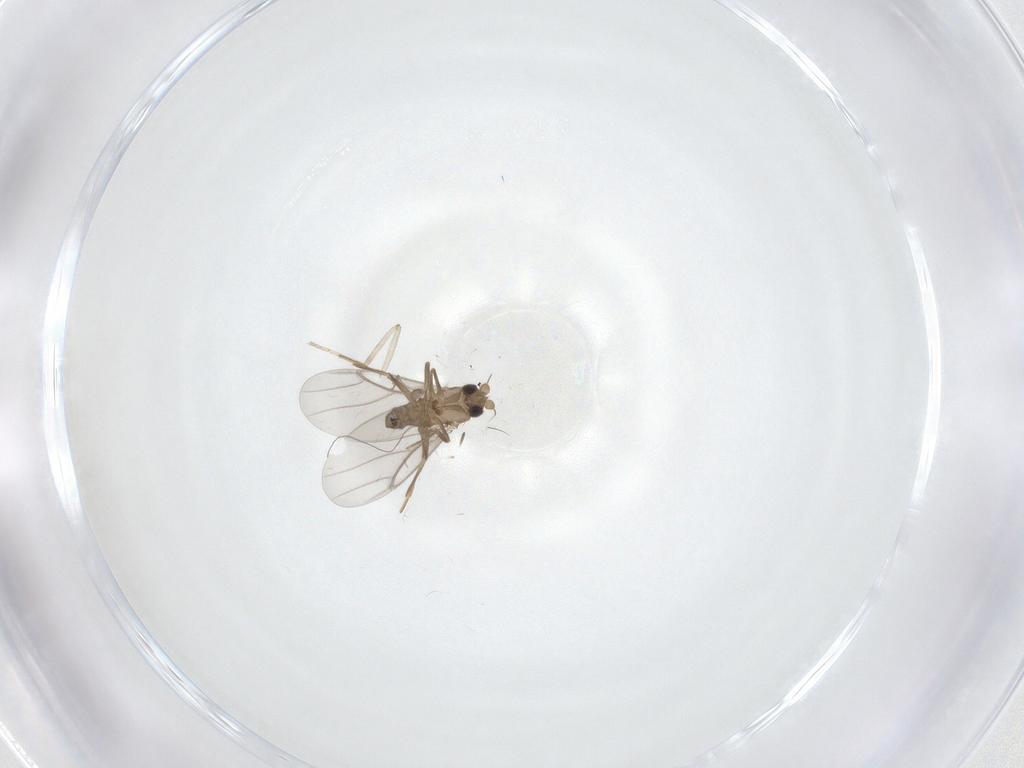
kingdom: Animalia
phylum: Arthropoda
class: Insecta
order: Diptera
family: Cecidomyiidae
